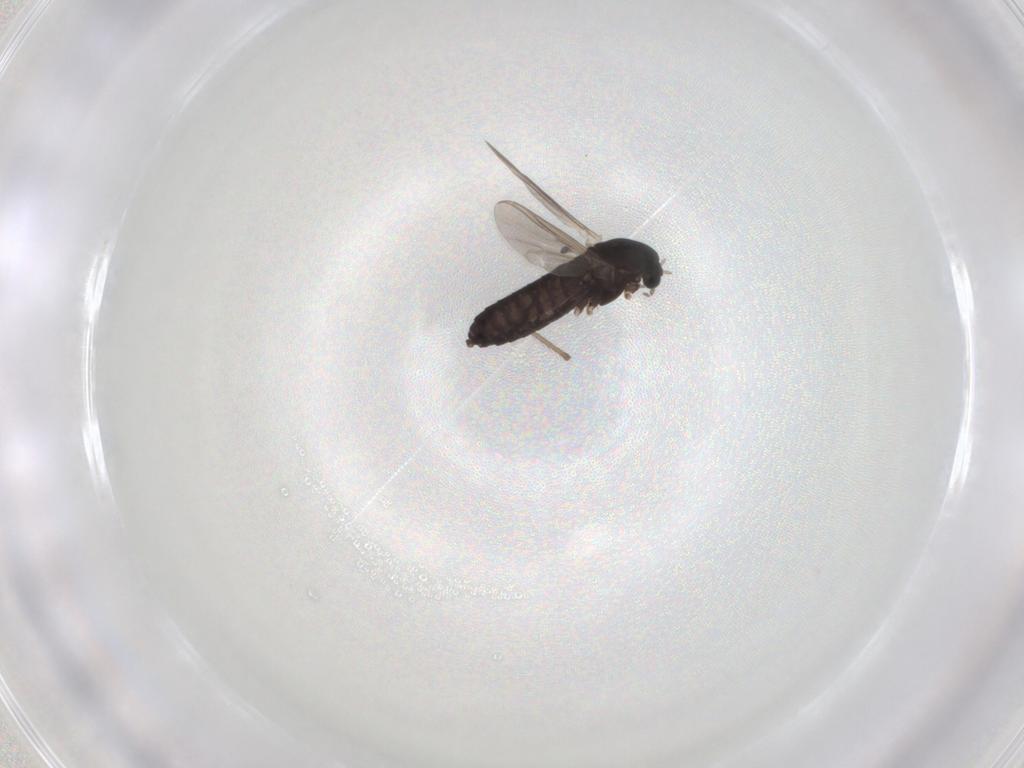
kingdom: Animalia
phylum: Arthropoda
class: Insecta
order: Diptera
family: Chironomidae
